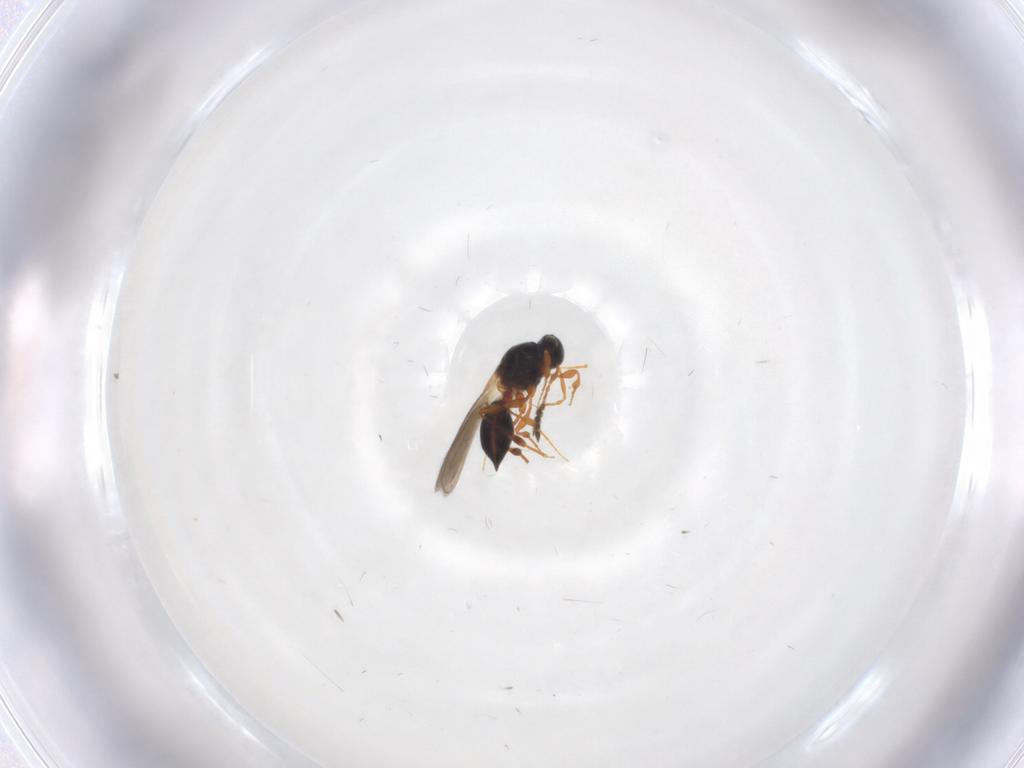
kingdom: Animalia
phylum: Arthropoda
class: Insecta
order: Hymenoptera
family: Platygastridae
